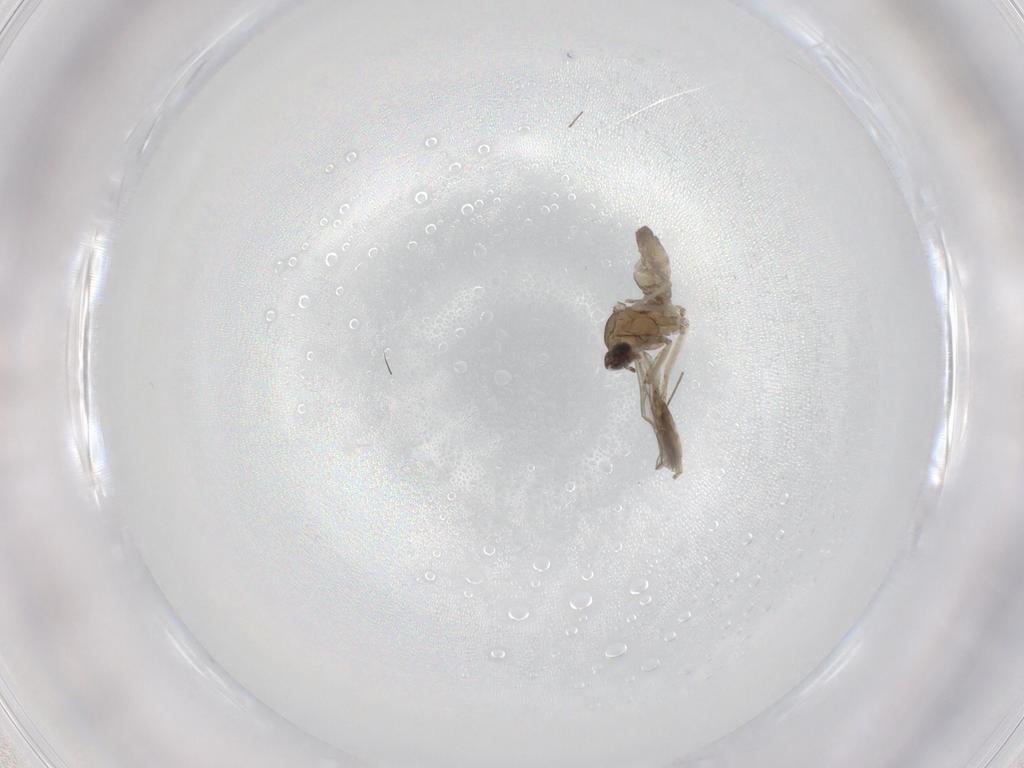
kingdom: Animalia
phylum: Arthropoda
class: Insecta
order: Diptera
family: Cecidomyiidae
